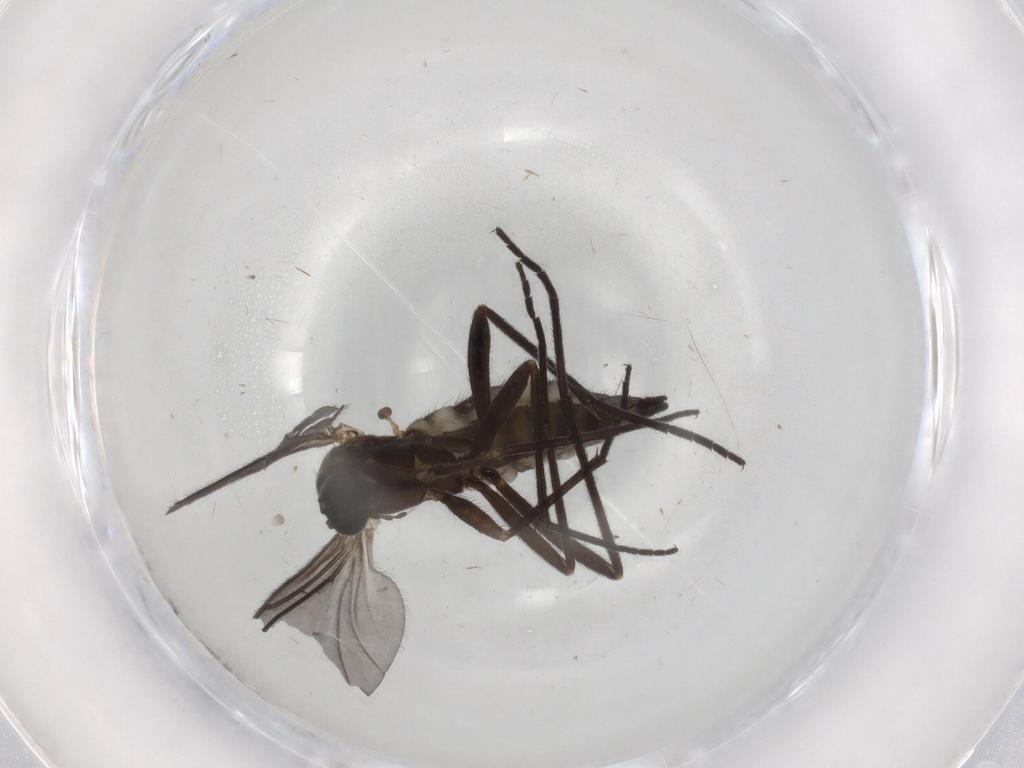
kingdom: Animalia
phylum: Arthropoda
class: Insecta
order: Diptera
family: Sciaridae
